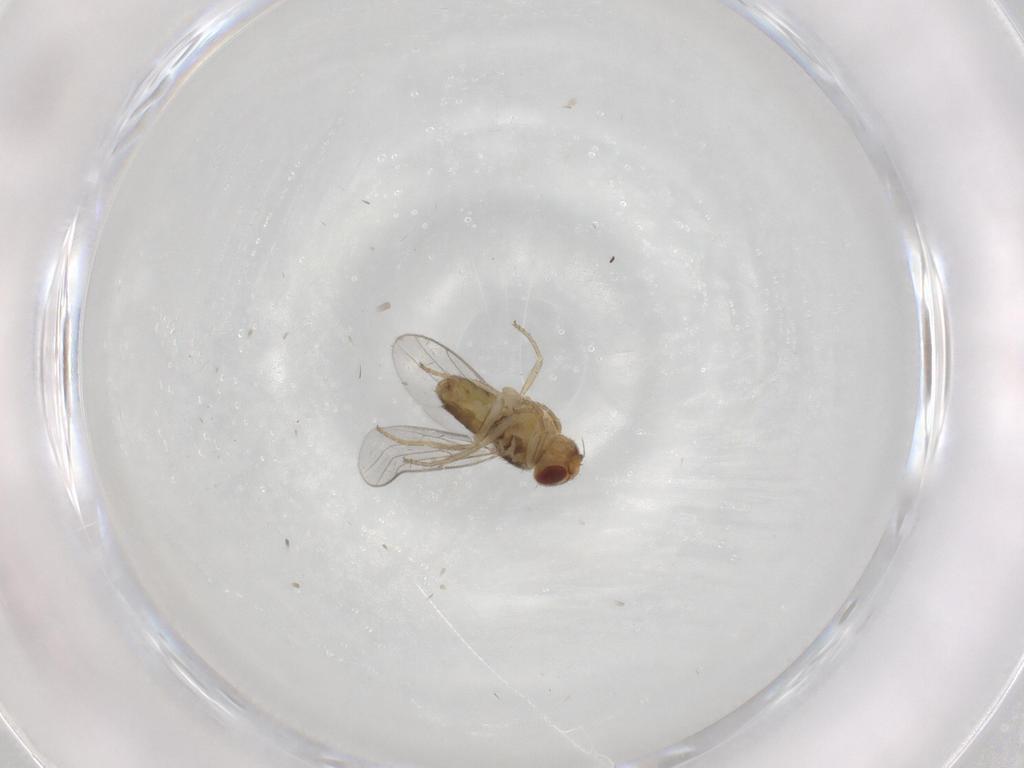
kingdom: Animalia
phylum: Arthropoda
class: Insecta
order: Diptera
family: Chloropidae
